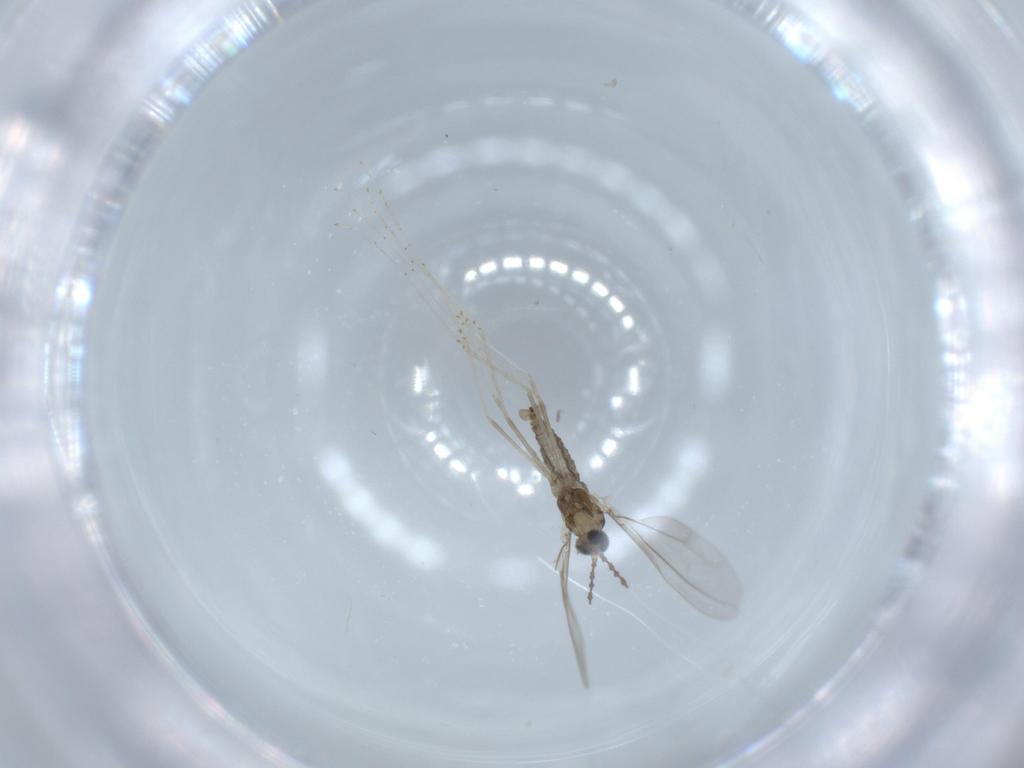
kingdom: Animalia
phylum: Arthropoda
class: Insecta
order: Diptera
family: Cecidomyiidae
